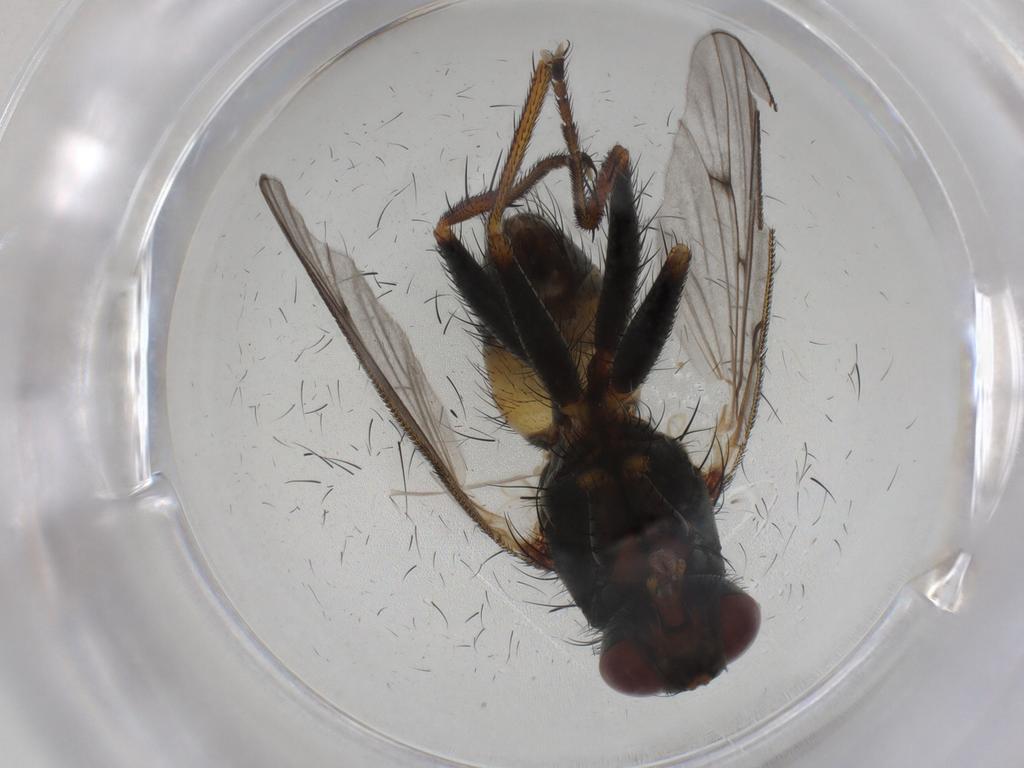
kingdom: Animalia
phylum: Arthropoda
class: Insecta
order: Diptera
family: Muscidae
